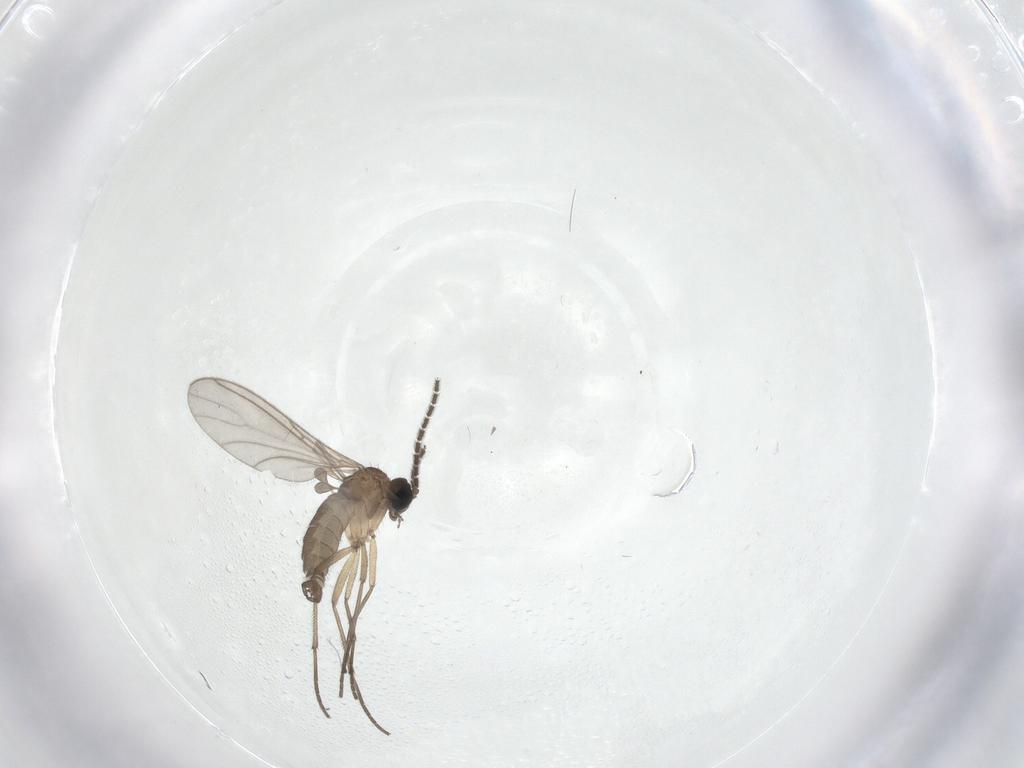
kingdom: Animalia
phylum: Arthropoda
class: Insecta
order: Diptera
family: Sciaridae
